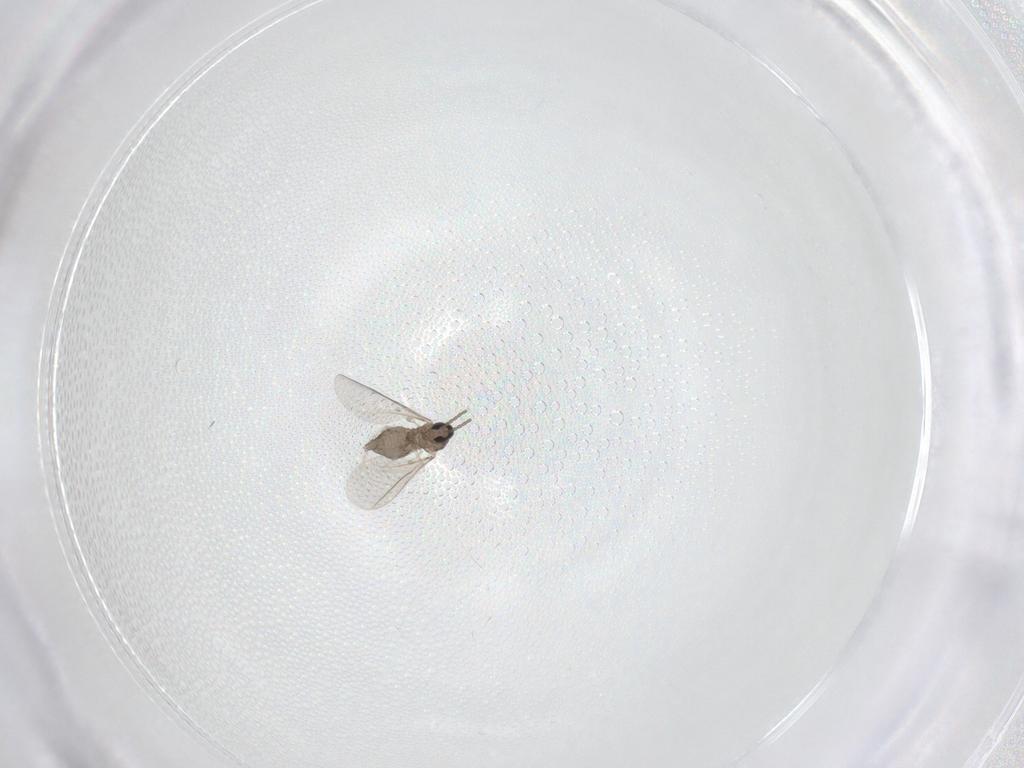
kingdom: Animalia
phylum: Arthropoda
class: Insecta
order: Diptera
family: Cecidomyiidae
